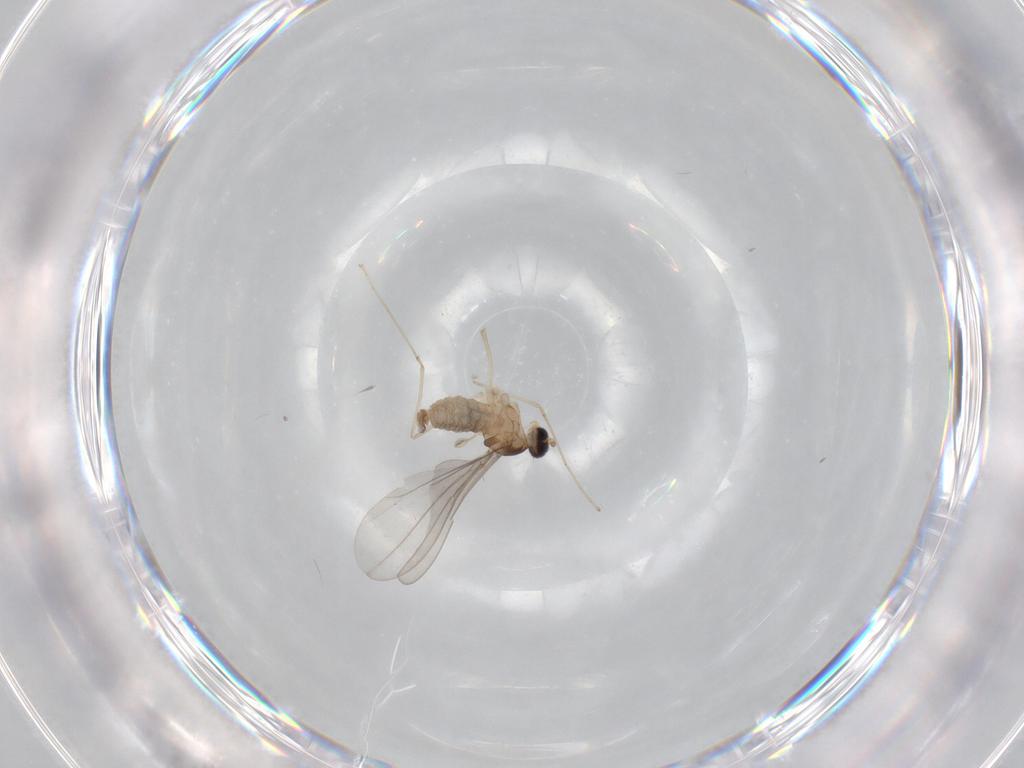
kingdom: Animalia
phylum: Arthropoda
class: Insecta
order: Diptera
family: Cecidomyiidae
